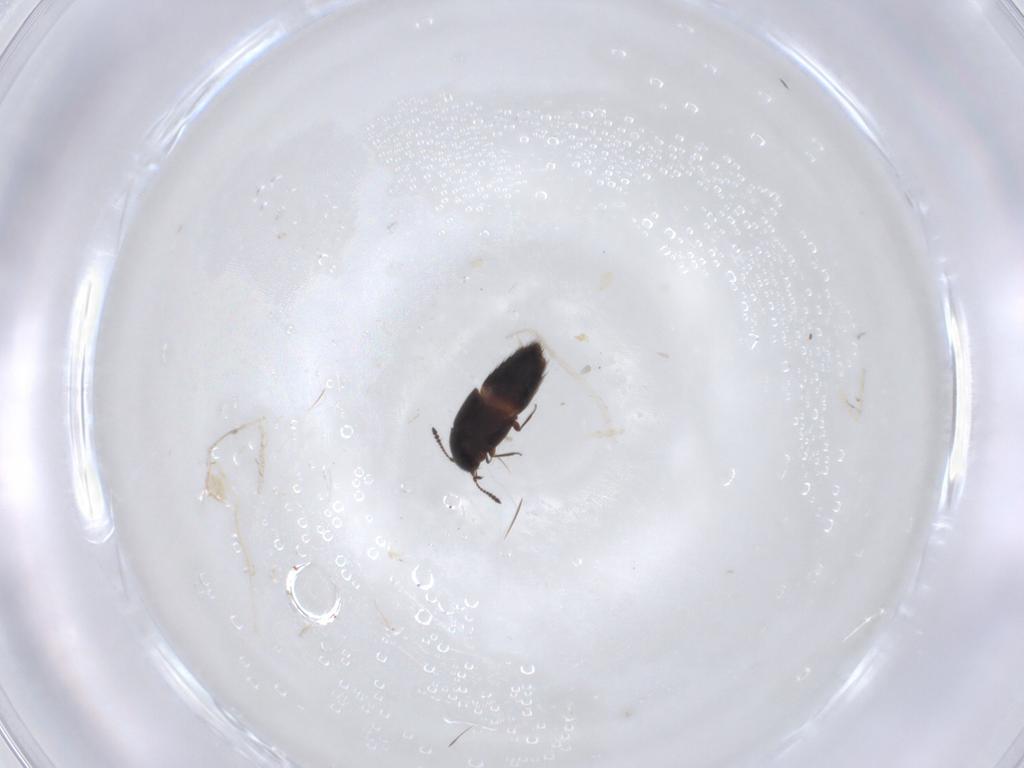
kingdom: Animalia
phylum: Arthropoda
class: Insecta
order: Coleoptera
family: Staphylinidae
